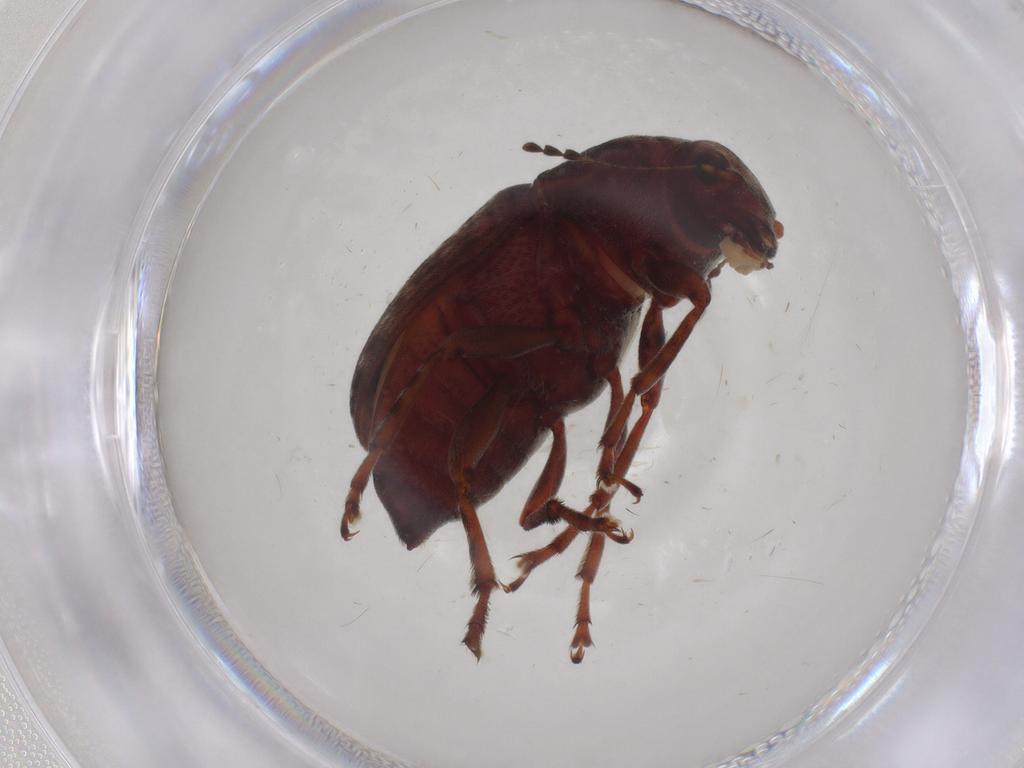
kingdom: Animalia
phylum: Arthropoda
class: Insecta
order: Coleoptera
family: Anthribidae
